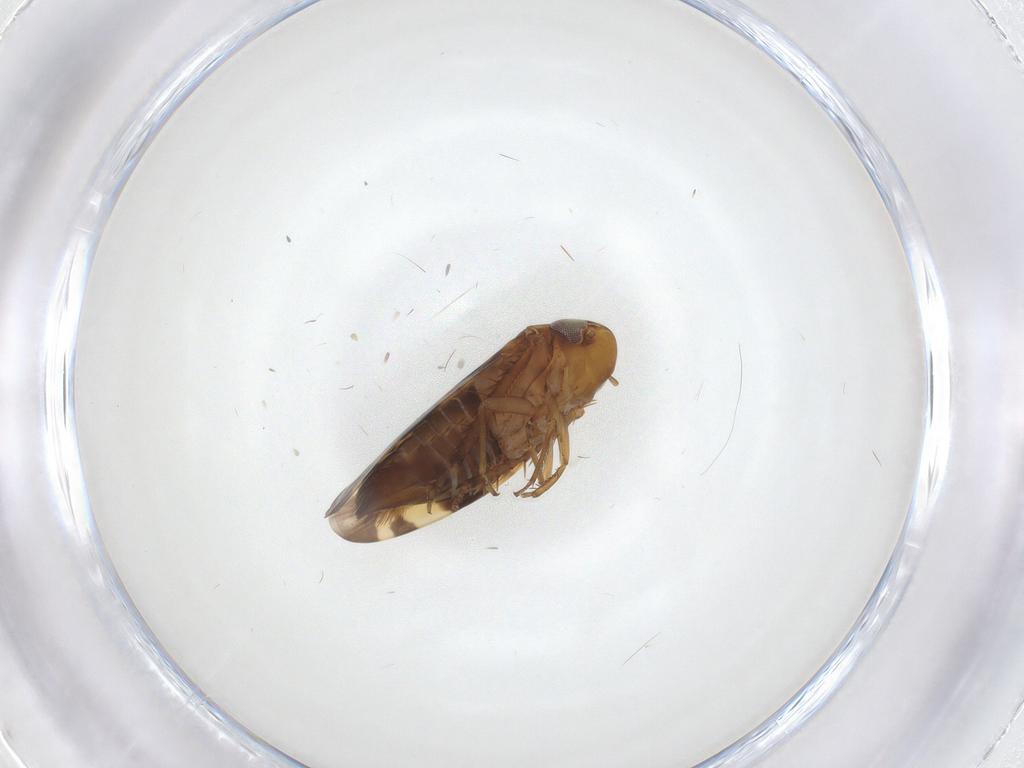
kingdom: Animalia
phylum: Arthropoda
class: Insecta
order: Hemiptera
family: Cicadellidae
